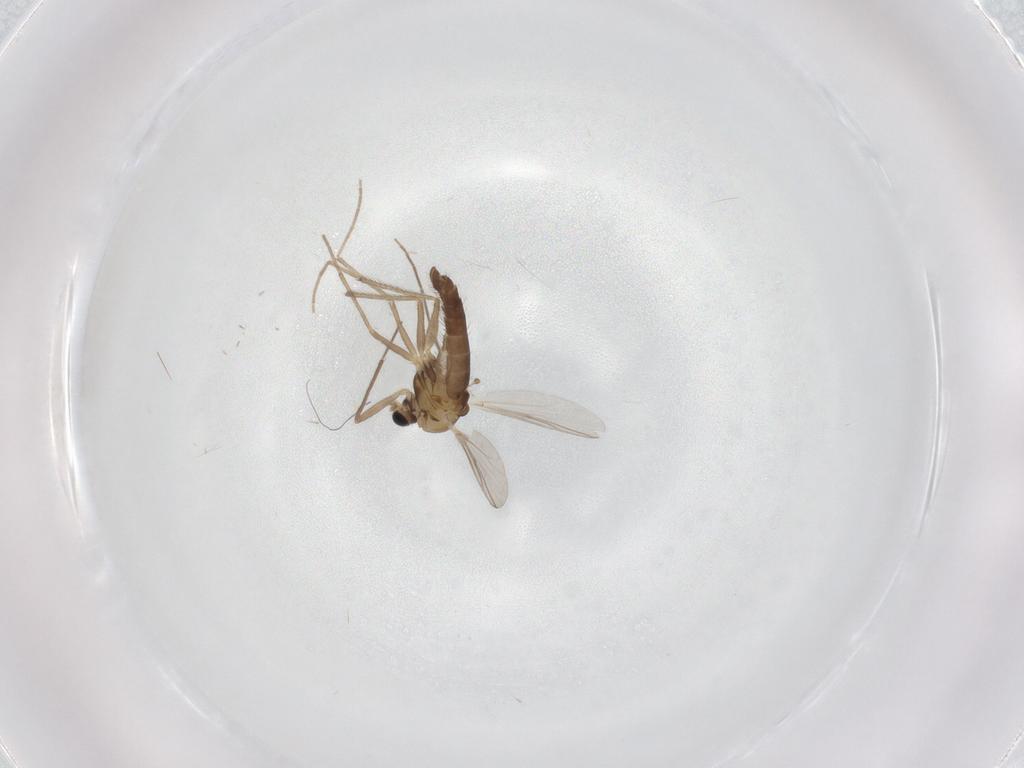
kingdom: Animalia
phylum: Arthropoda
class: Insecta
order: Diptera
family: Chironomidae
